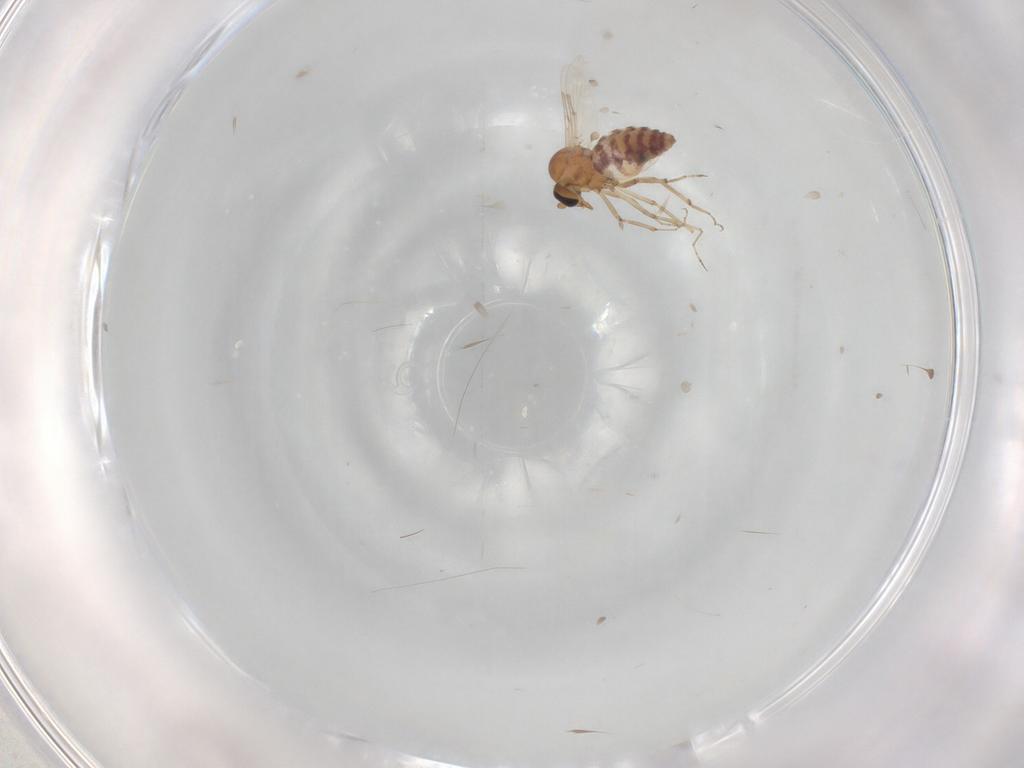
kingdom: Animalia
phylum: Arthropoda
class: Insecta
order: Diptera
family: Ceratopogonidae
